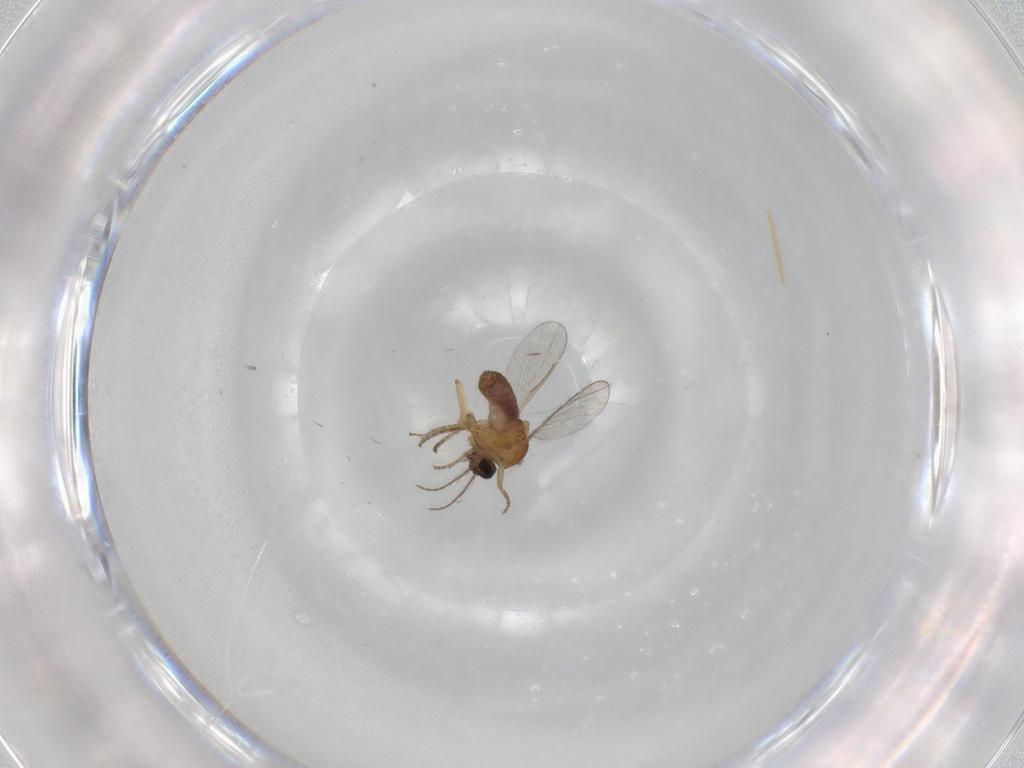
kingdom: Animalia
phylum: Arthropoda
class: Insecta
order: Diptera
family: Ceratopogonidae
